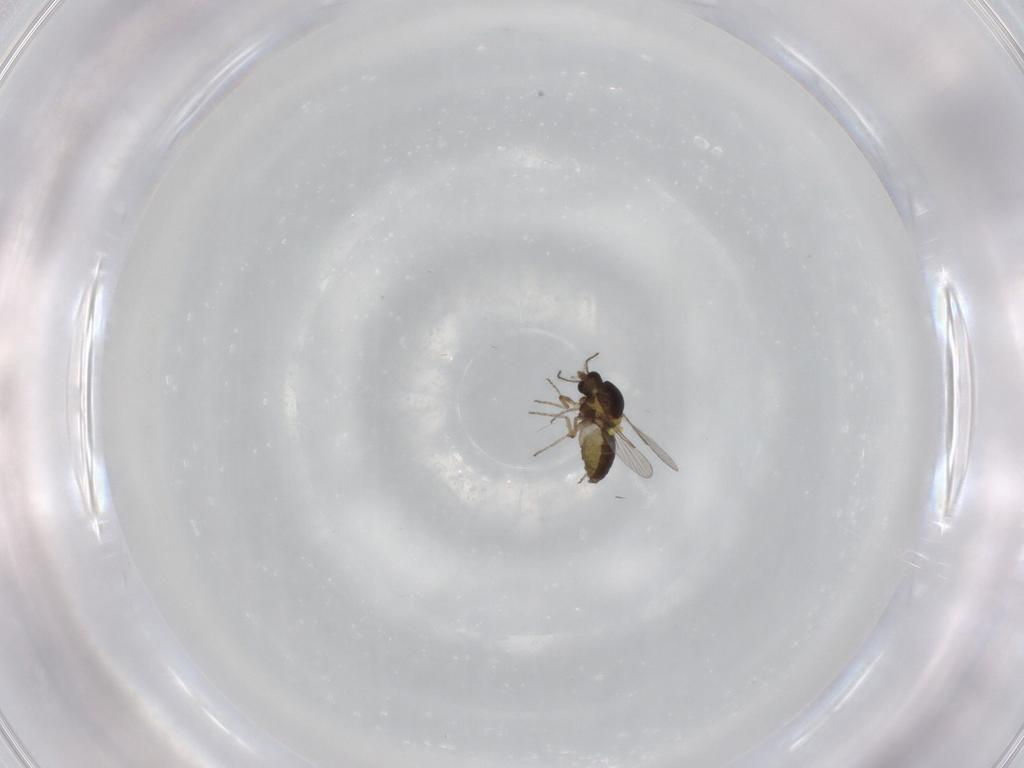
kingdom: Animalia
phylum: Arthropoda
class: Insecta
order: Diptera
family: Ceratopogonidae
